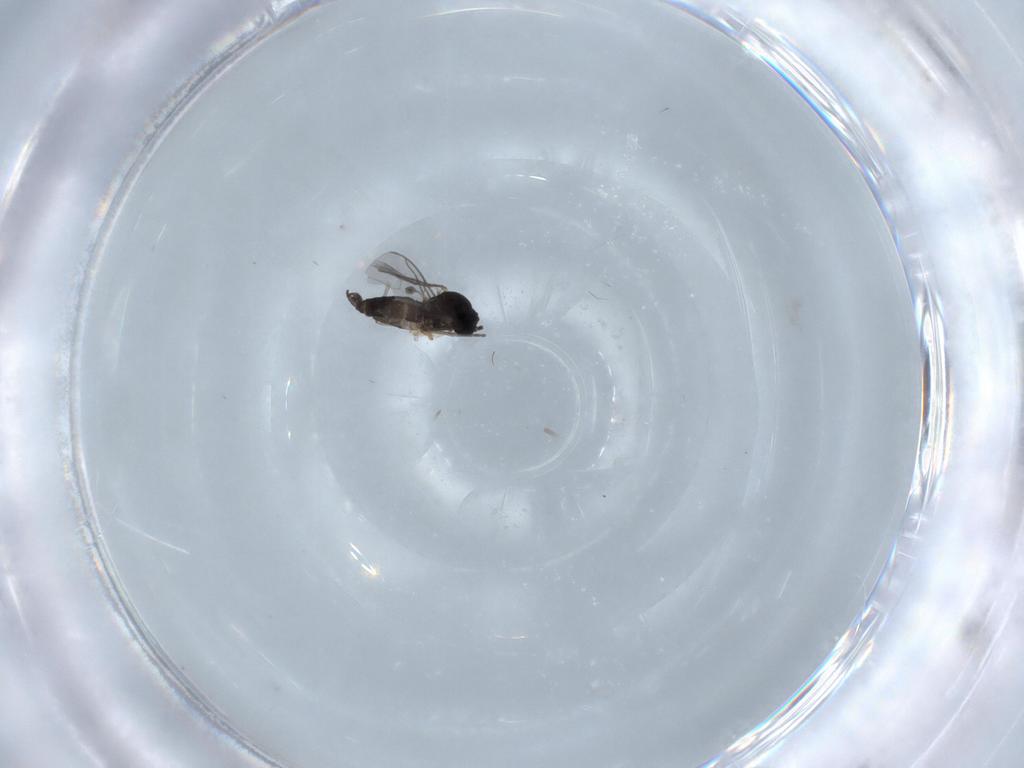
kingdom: Animalia
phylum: Arthropoda
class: Insecta
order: Diptera
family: Sciaridae
